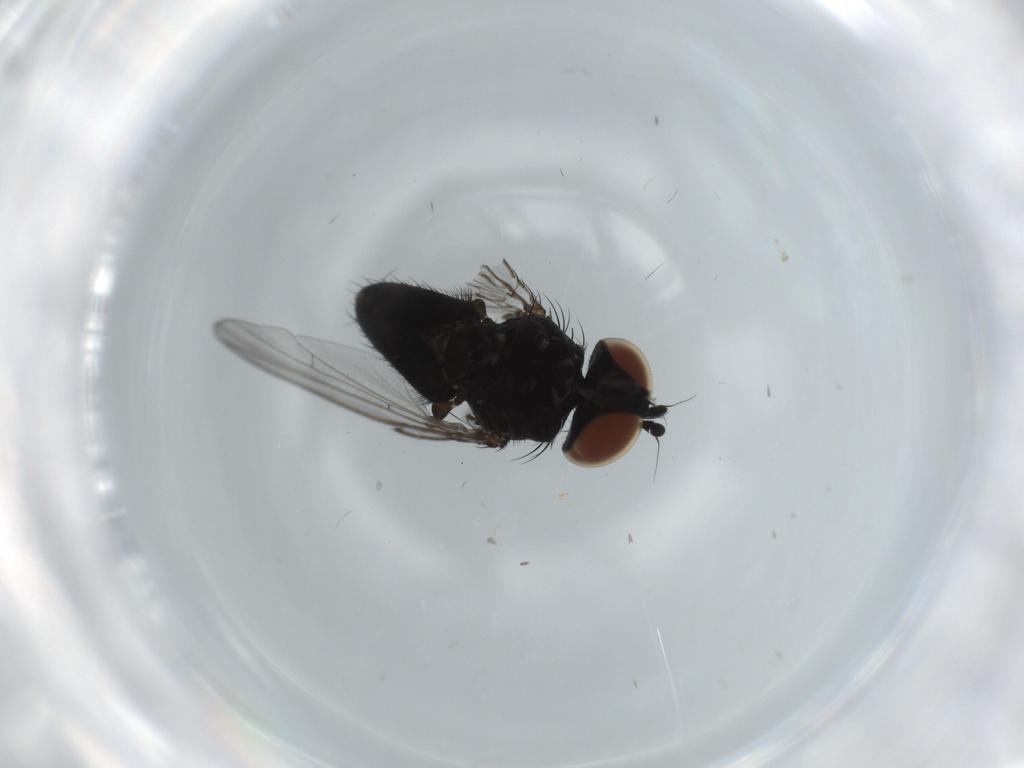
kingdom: Animalia
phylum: Arthropoda
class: Insecta
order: Diptera
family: Milichiidae
